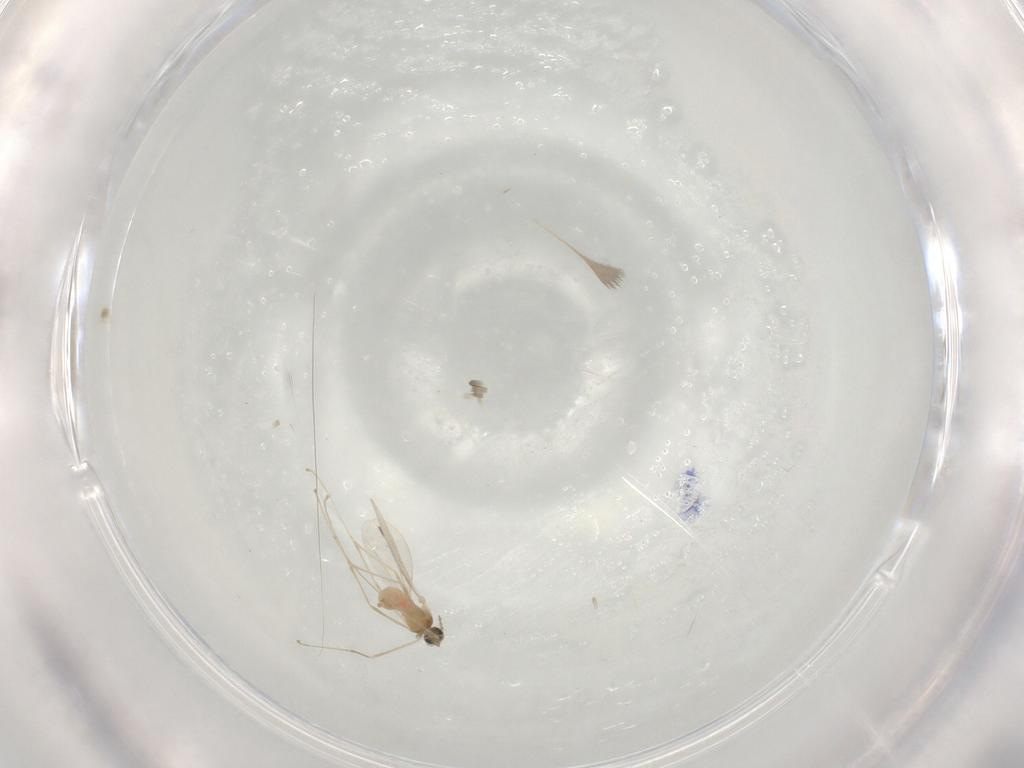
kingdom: Animalia
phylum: Arthropoda
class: Insecta
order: Diptera
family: Cecidomyiidae
